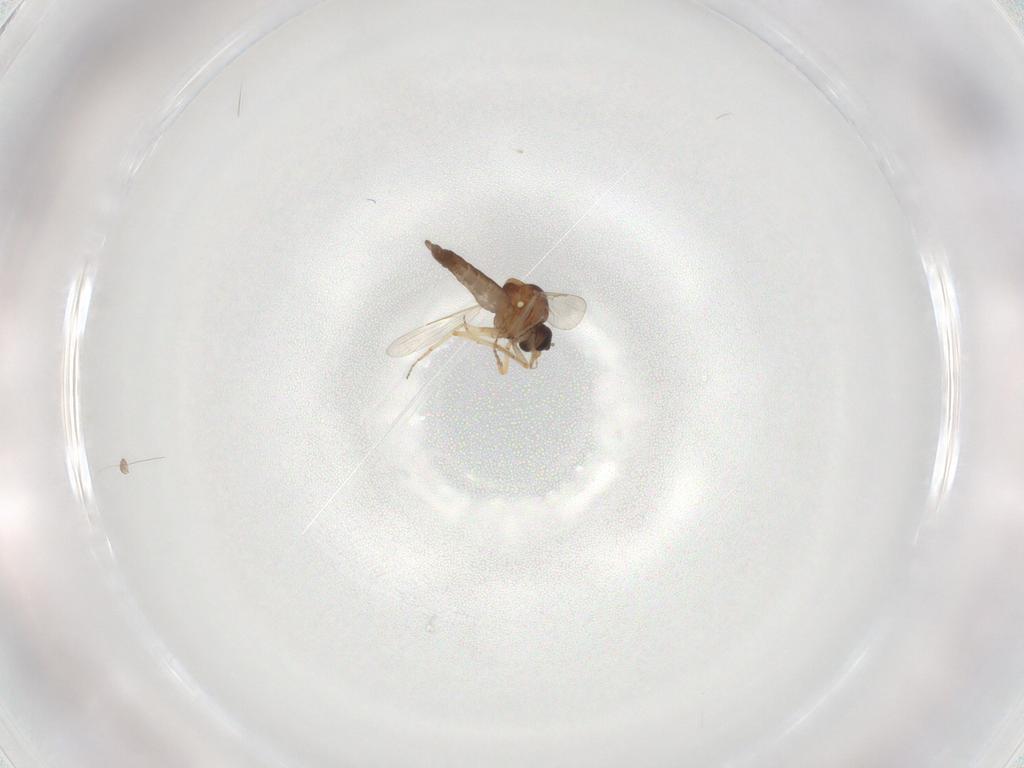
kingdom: Animalia
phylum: Arthropoda
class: Insecta
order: Diptera
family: Ceratopogonidae
